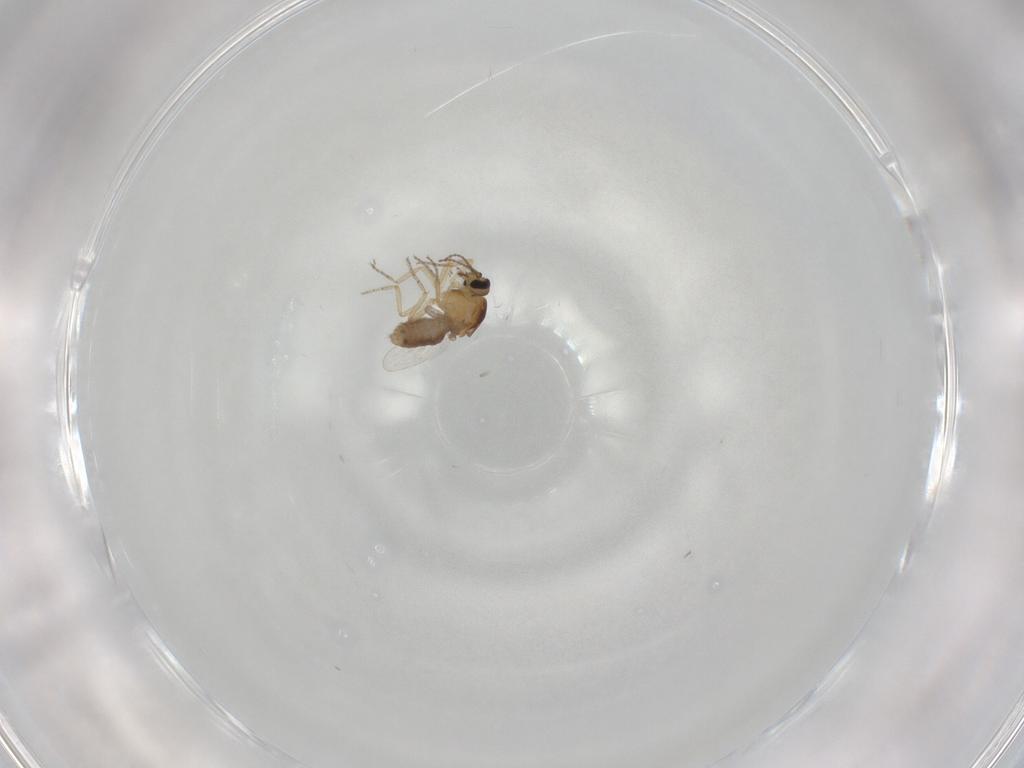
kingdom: Animalia
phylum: Arthropoda
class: Insecta
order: Diptera
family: Ceratopogonidae
